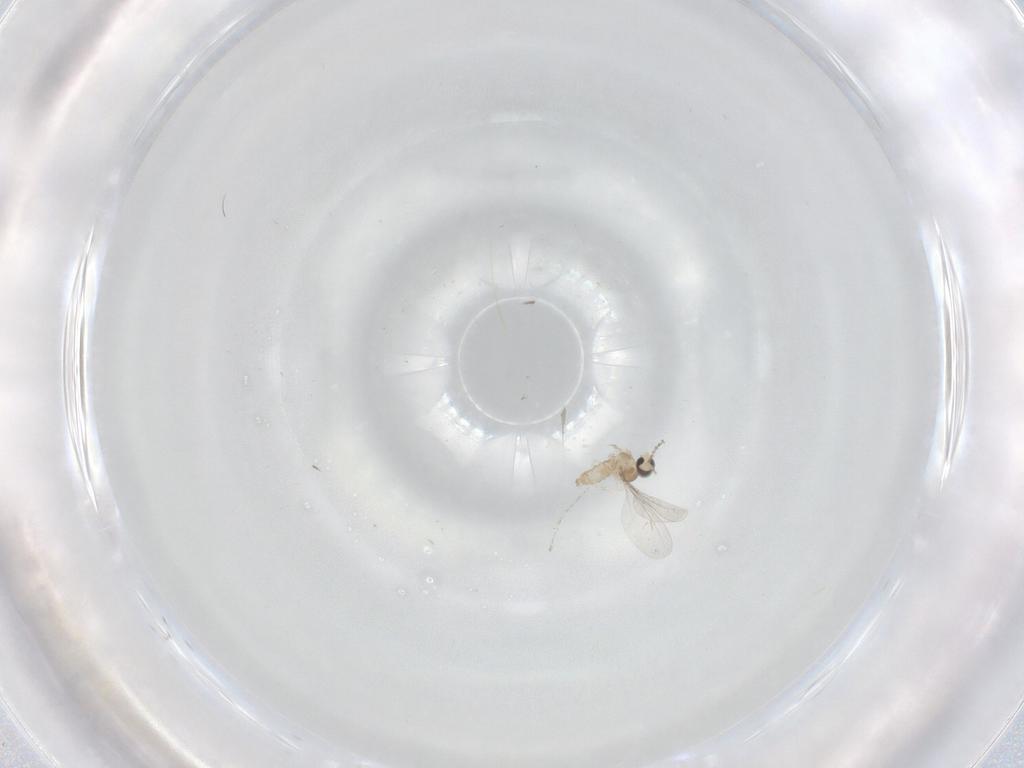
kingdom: Animalia
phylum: Arthropoda
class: Insecta
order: Diptera
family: Cecidomyiidae
